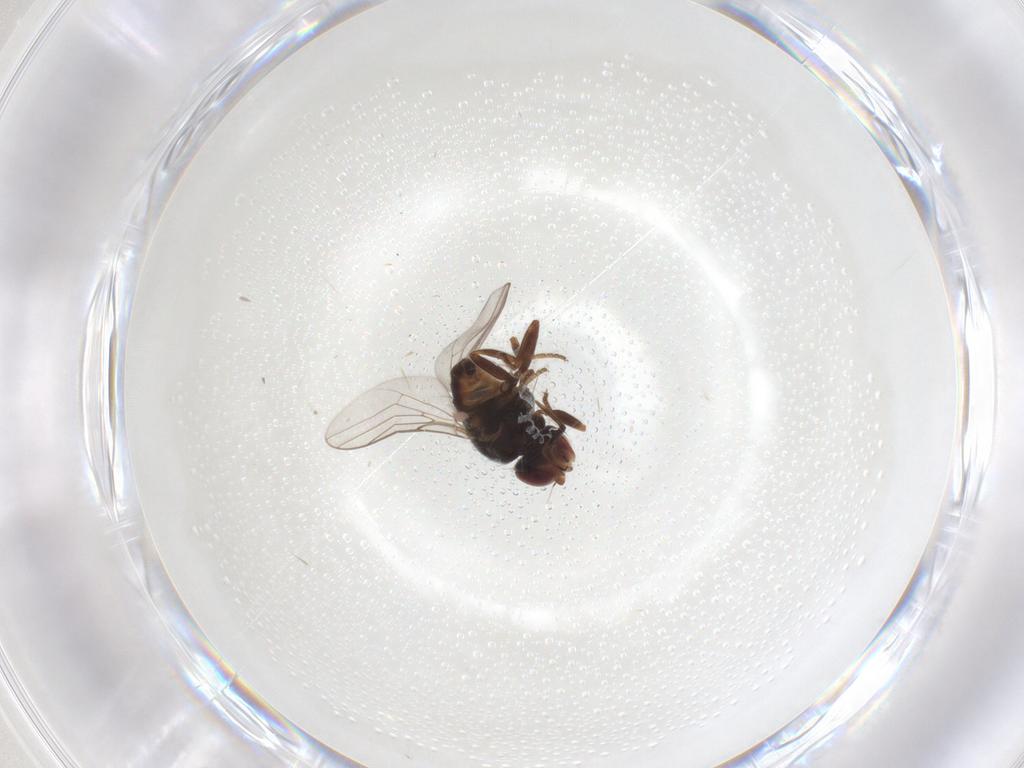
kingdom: Animalia
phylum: Arthropoda
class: Insecta
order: Diptera
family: Chloropidae
